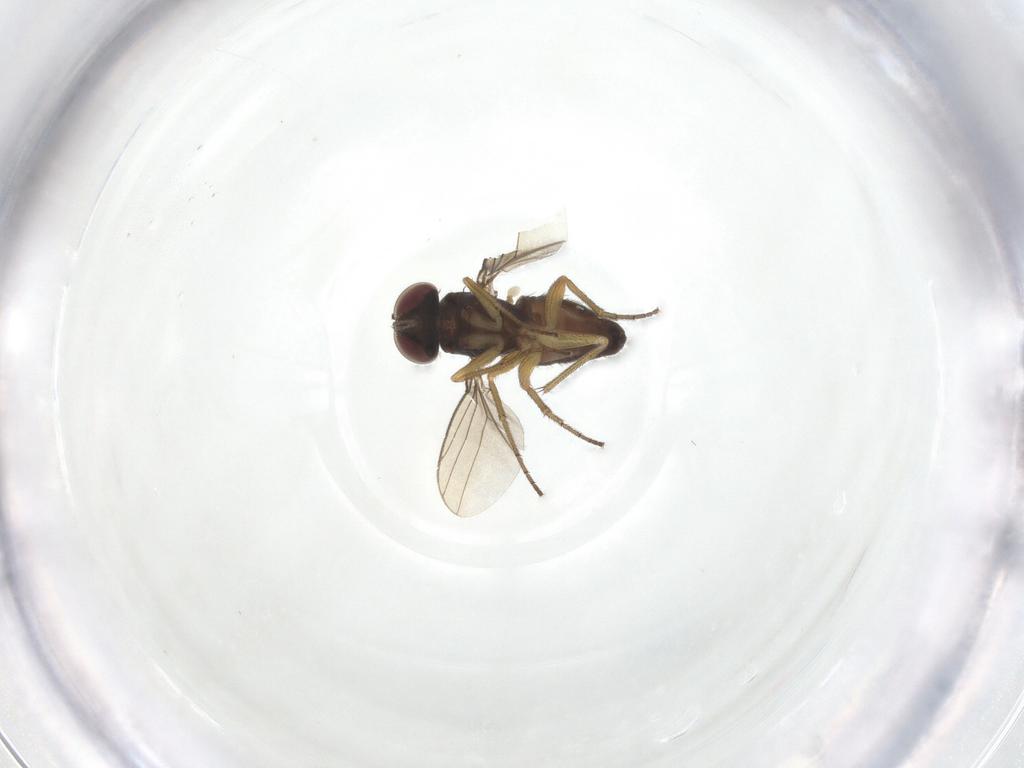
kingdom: Animalia
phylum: Arthropoda
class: Insecta
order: Diptera
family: Dolichopodidae
